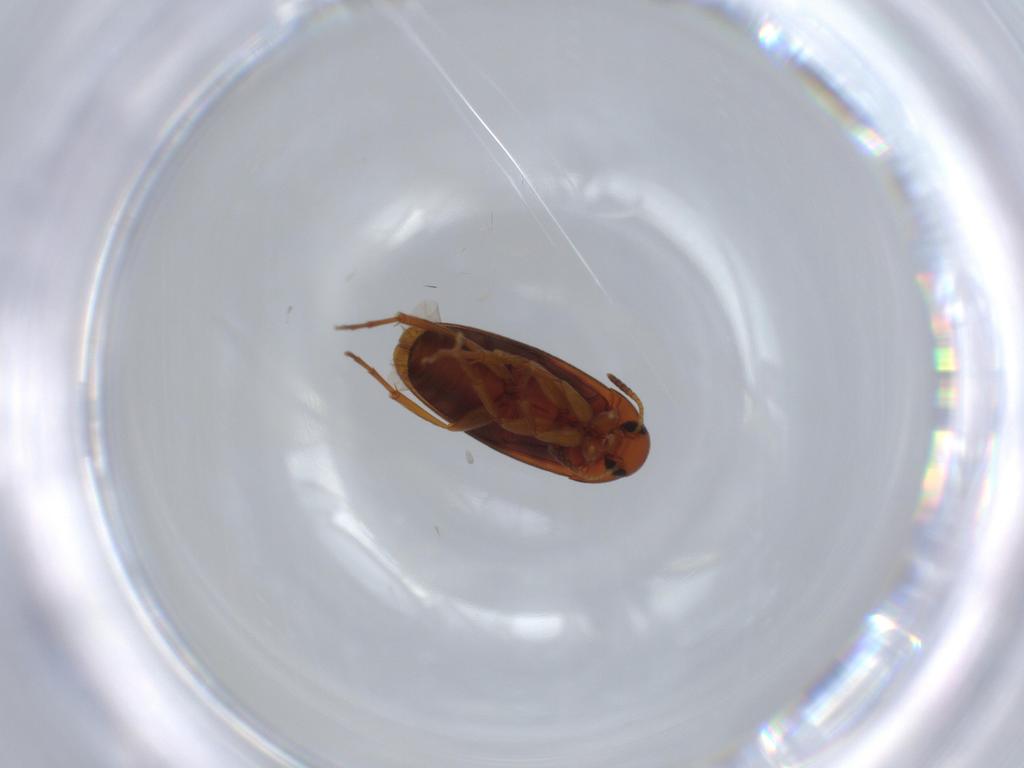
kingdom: Animalia
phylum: Arthropoda
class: Insecta
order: Coleoptera
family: Scraptiidae
